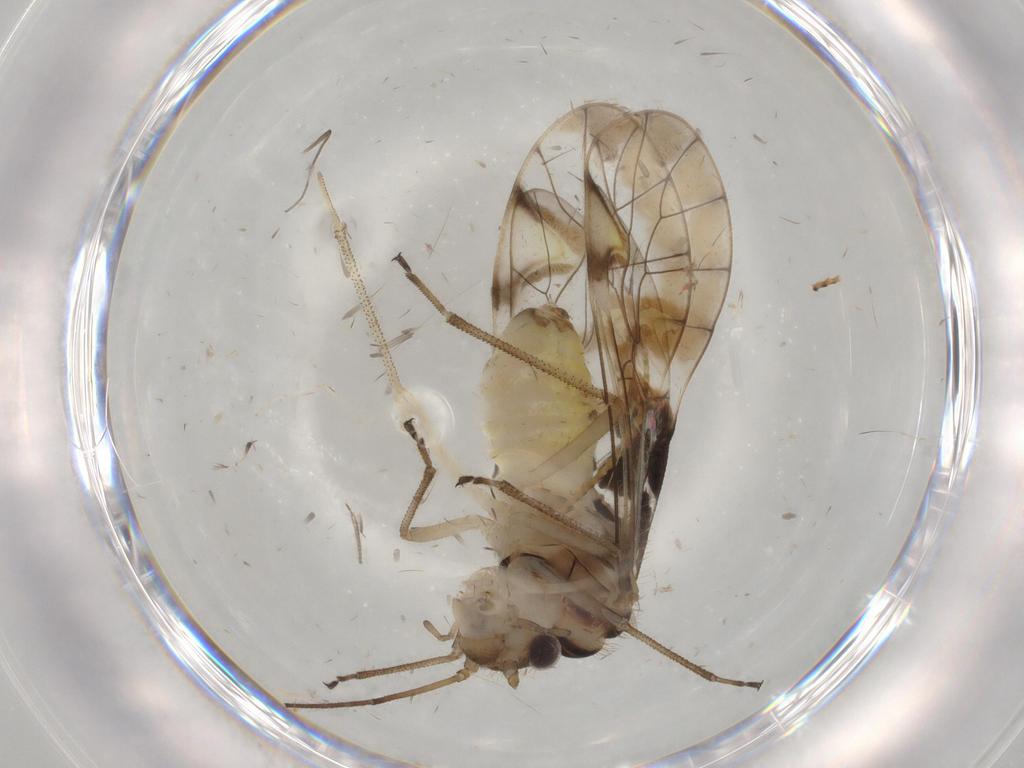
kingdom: Animalia
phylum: Arthropoda
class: Insecta
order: Psocodea
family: Amphipsocidae
